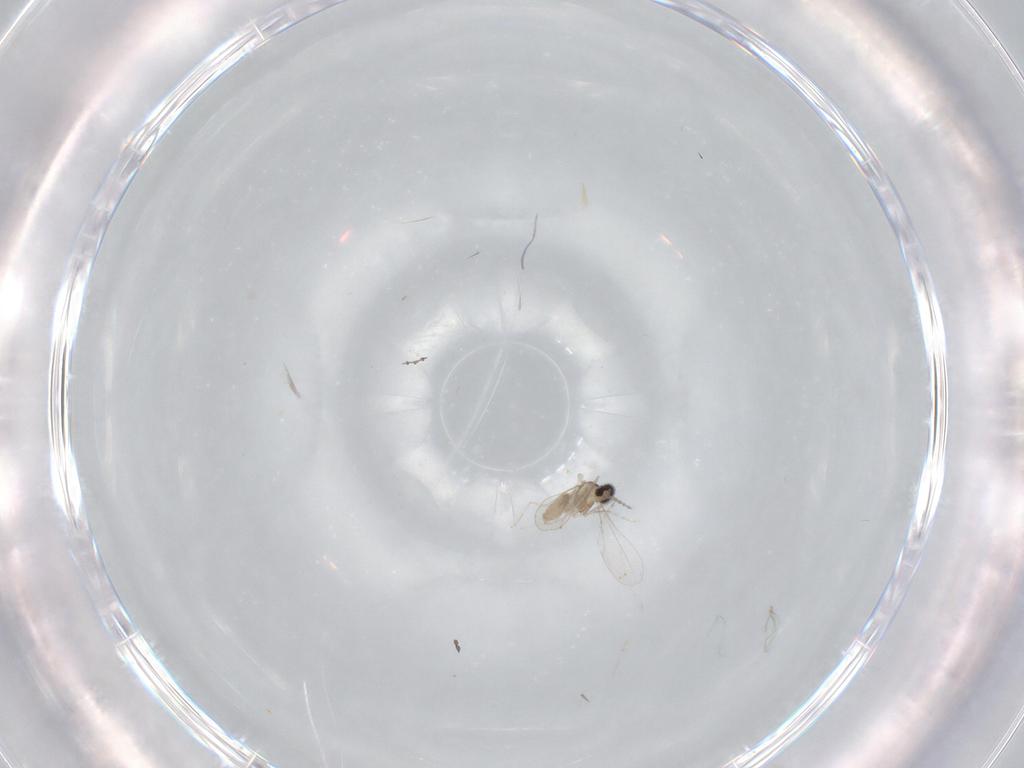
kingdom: Animalia
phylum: Arthropoda
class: Insecta
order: Diptera
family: Cecidomyiidae
